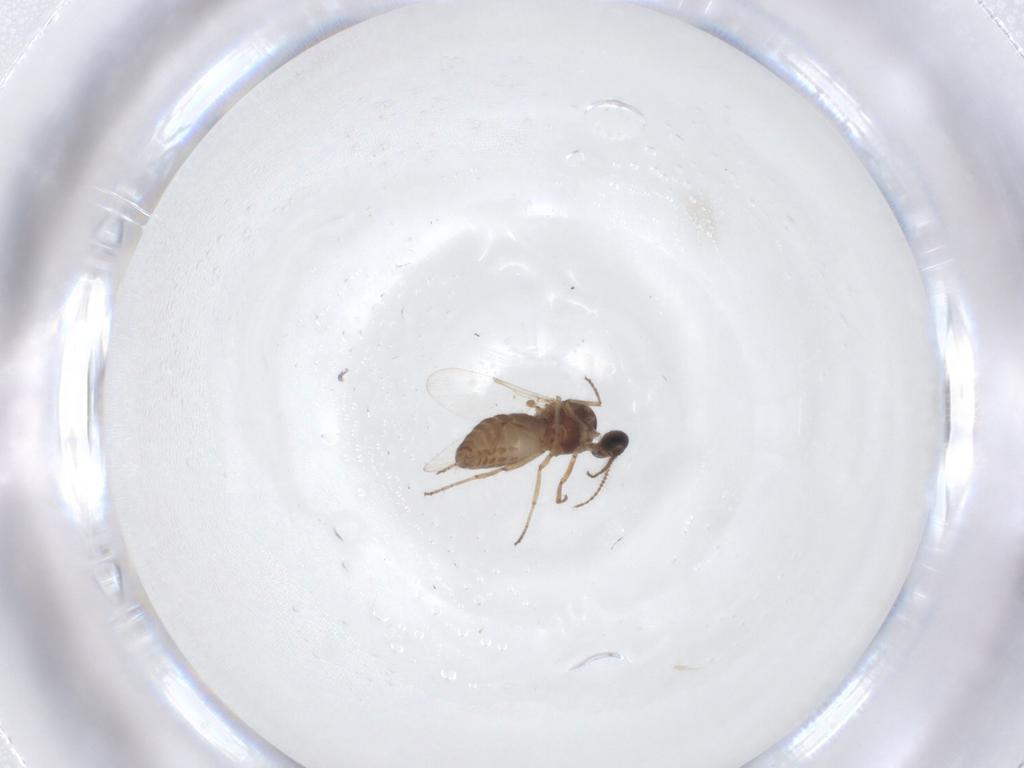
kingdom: Animalia
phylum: Arthropoda
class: Insecta
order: Diptera
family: Ceratopogonidae
